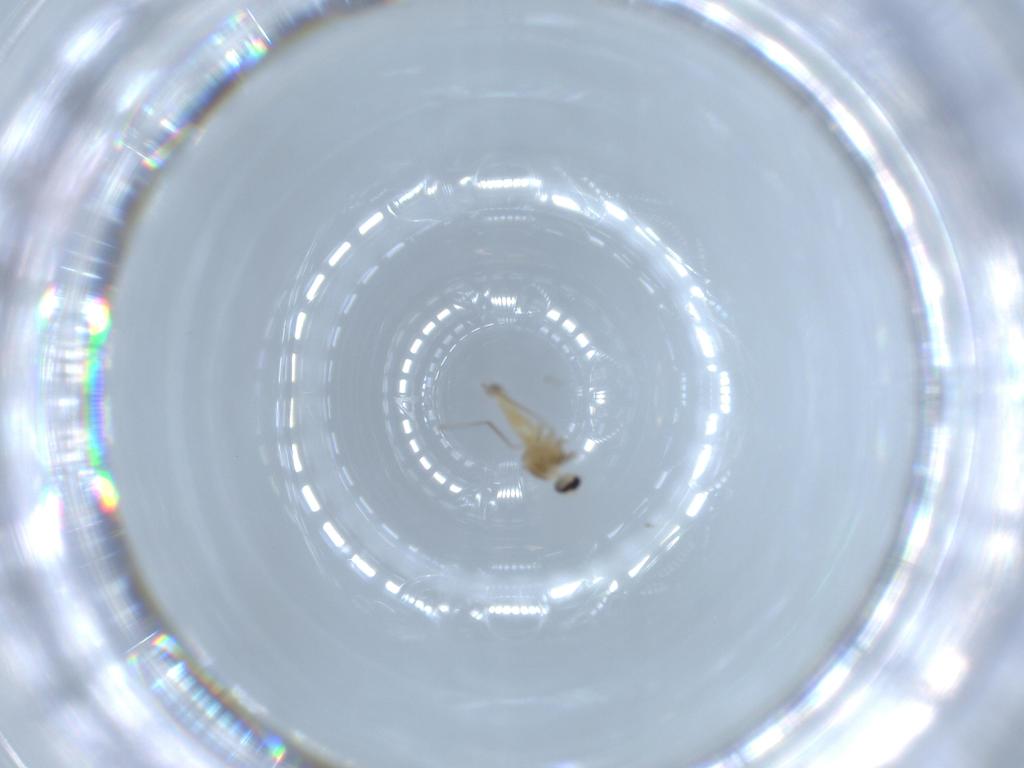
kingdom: Animalia
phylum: Arthropoda
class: Insecta
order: Diptera
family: Cecidomyiidae
